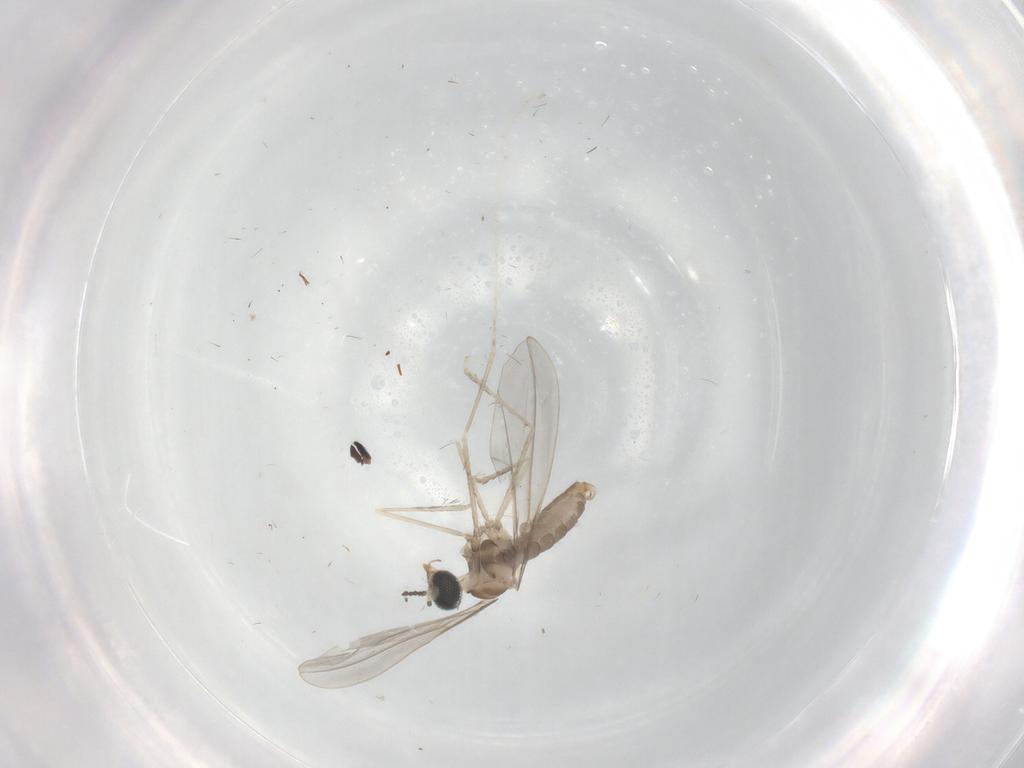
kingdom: Animalia
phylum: Arthropoda
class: Insecta
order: Diptera
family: Cecidomyiidae
